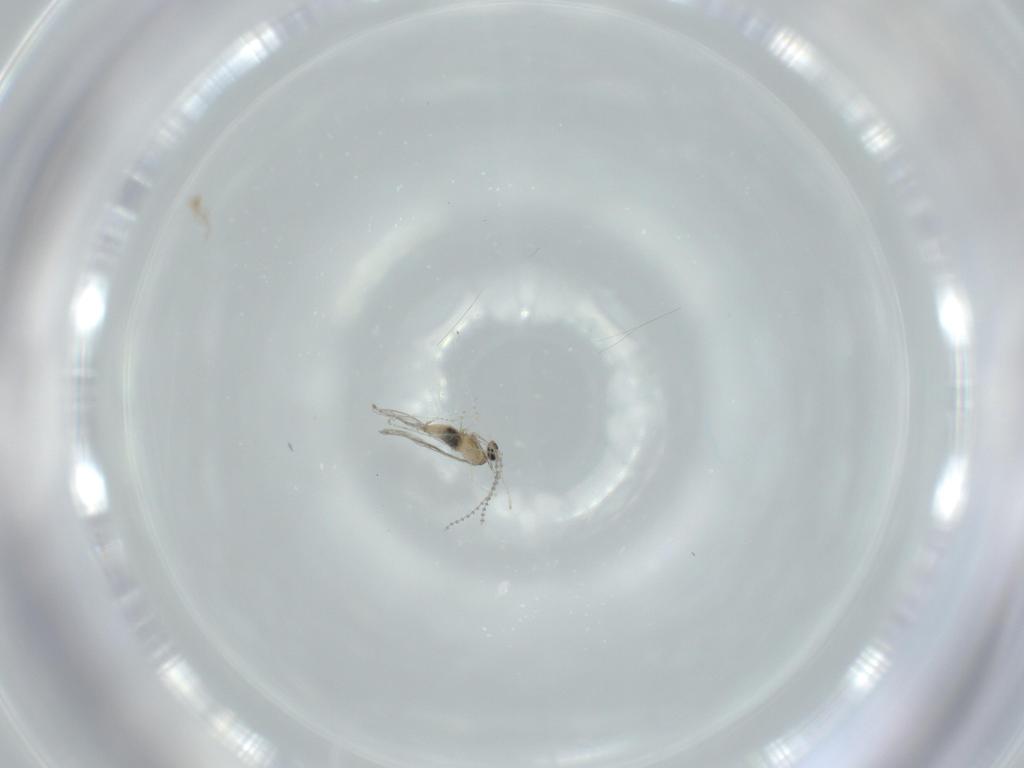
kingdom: Animalia
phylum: Arthropoda
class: Insecta
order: Diptera
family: Cecidomyiidae
